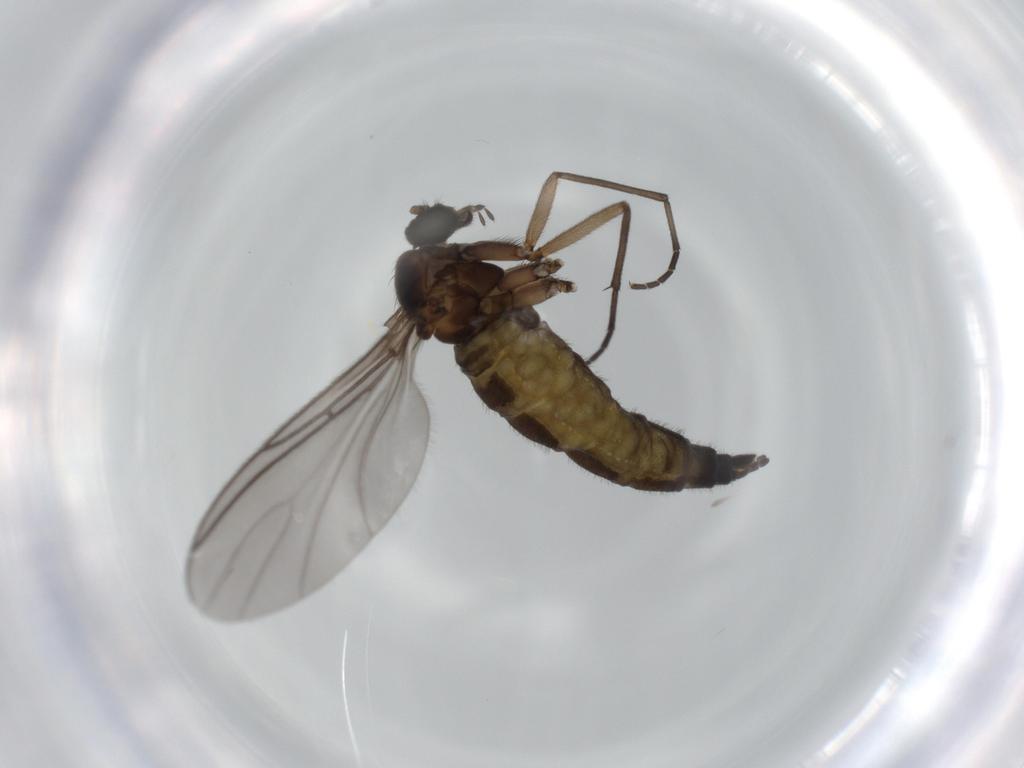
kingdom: Animalia
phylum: Arthropoda
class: Insecta
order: Diptera
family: Sciaridae
